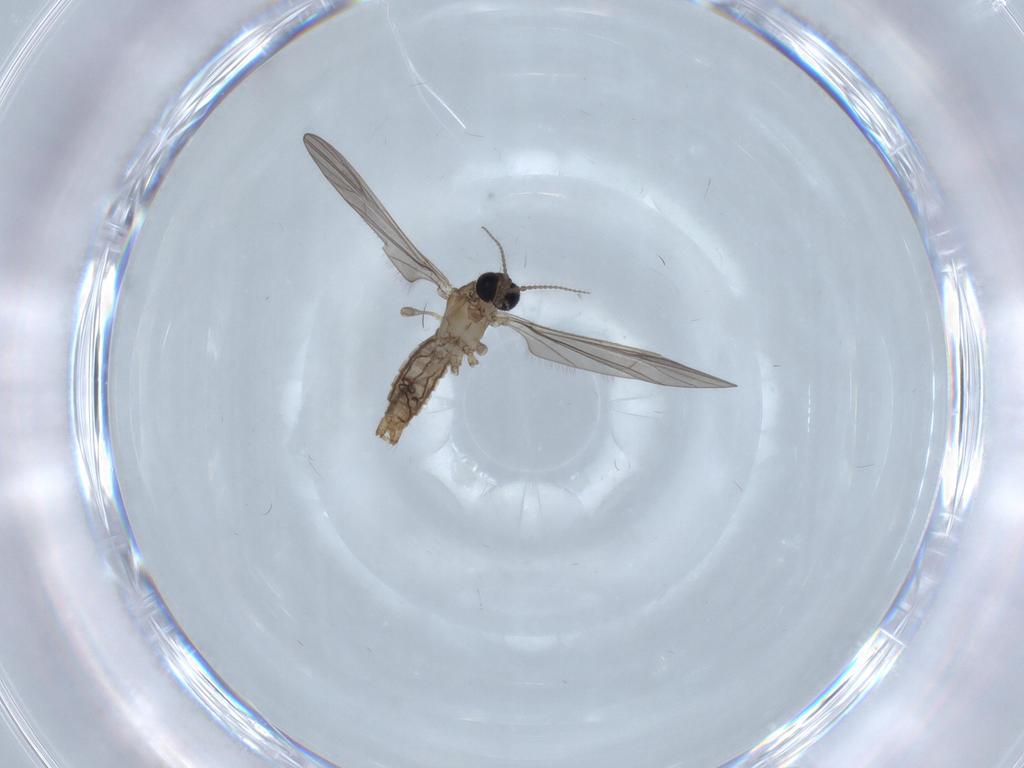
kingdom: Animalia
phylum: Arthropoda
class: Insecta
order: Diptera
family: Limoniidae
